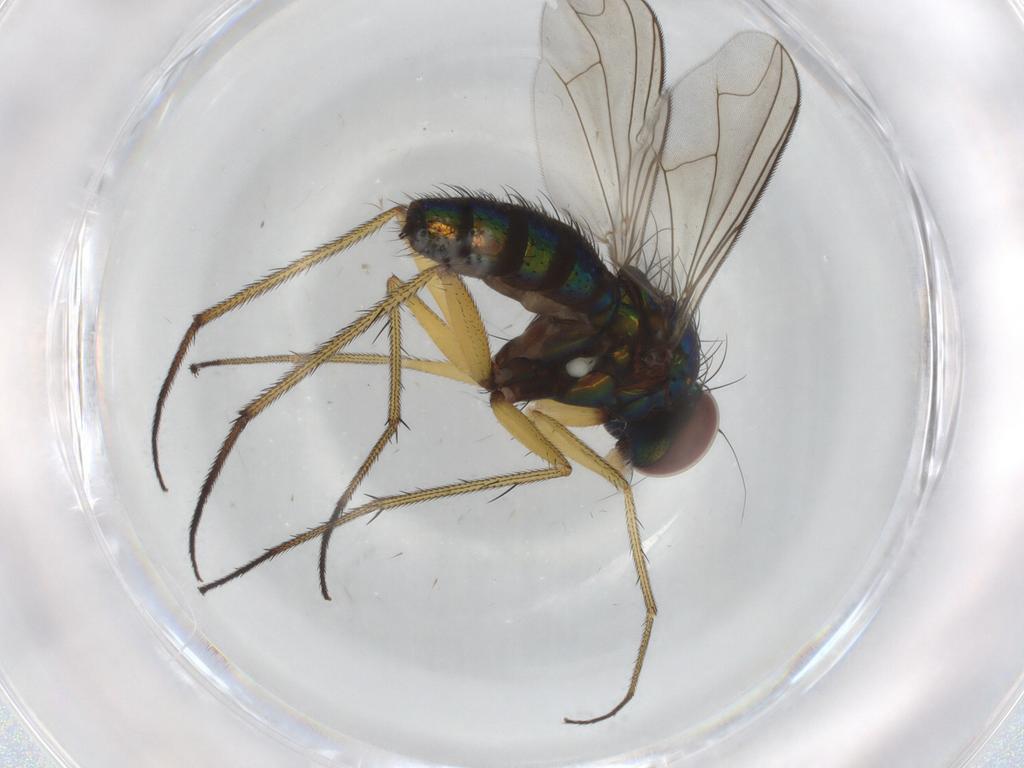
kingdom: Animalia
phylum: Arthropoda
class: Insecta
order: Diptera
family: Dolichopodidae
